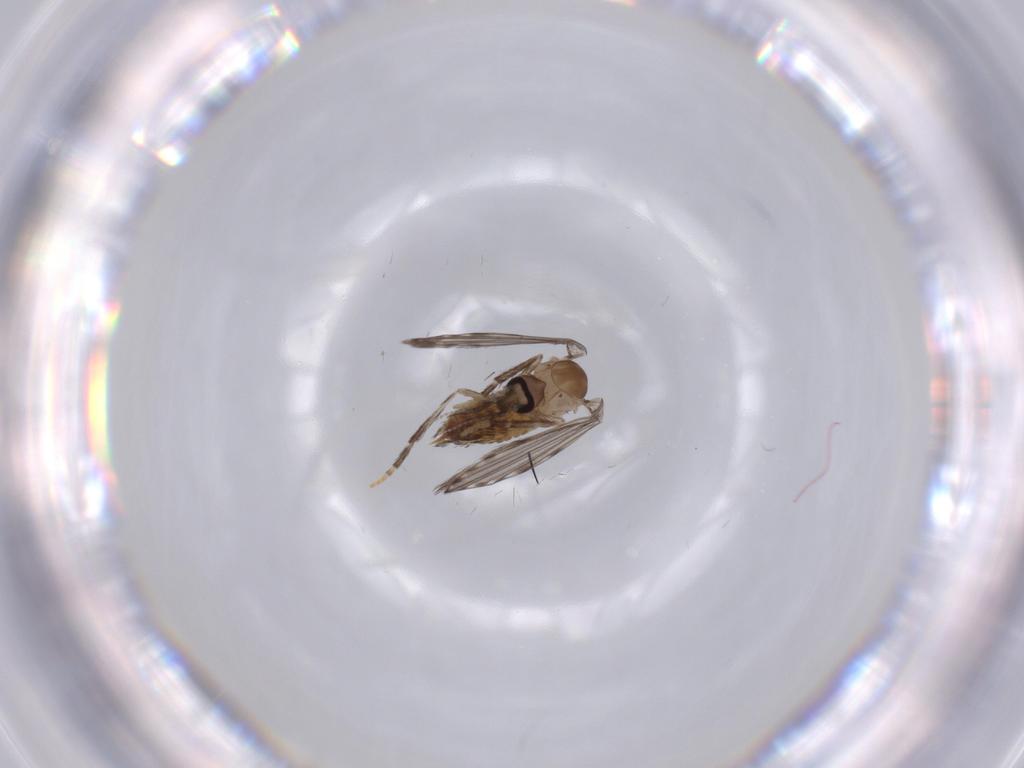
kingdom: Animalia
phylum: Arthropoda
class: Insecta
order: Diptera
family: Ceratopogonidae
